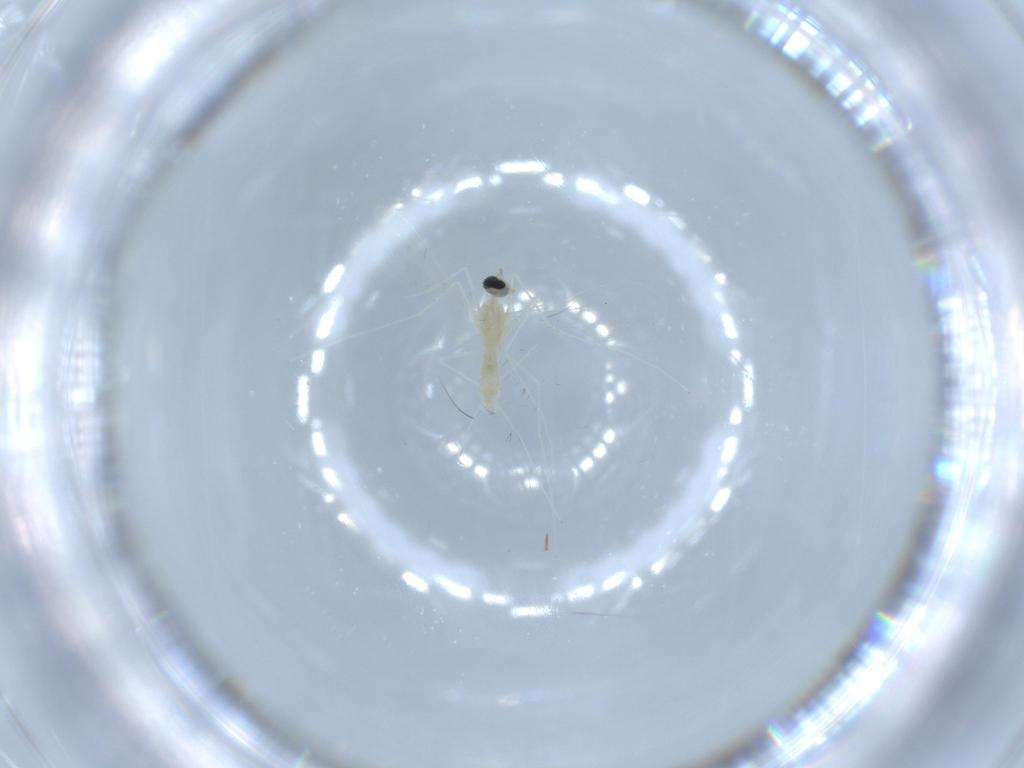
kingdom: Animalia
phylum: Arthropoda
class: Insecta
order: Diptera
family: Cecidomyiidae
